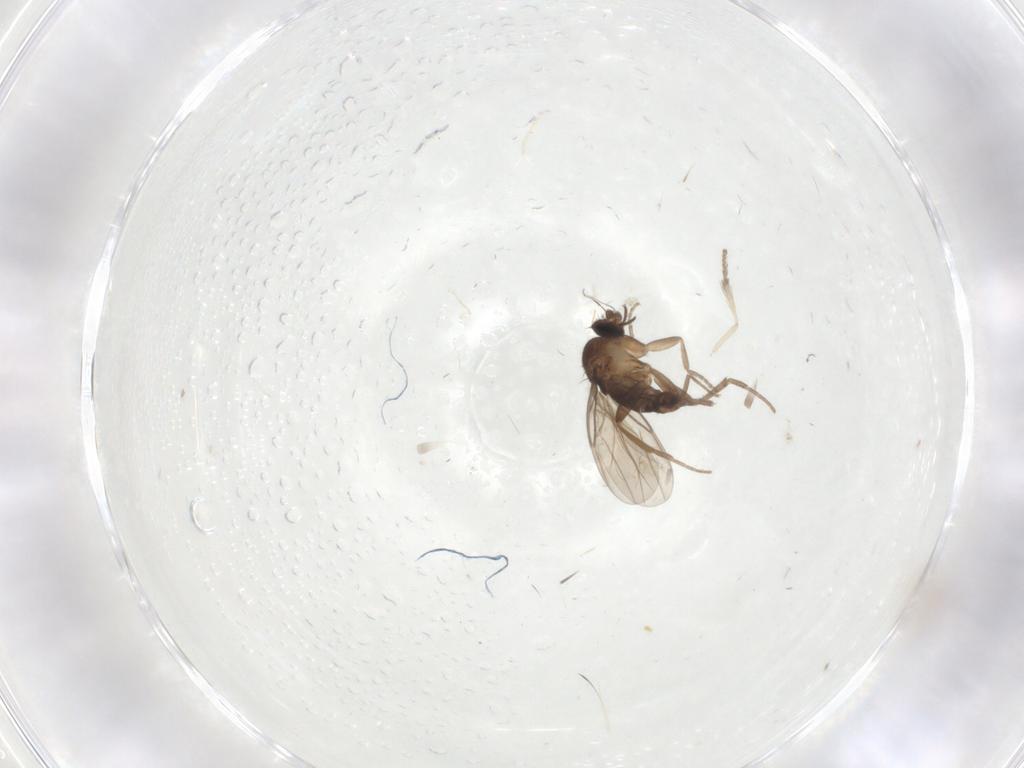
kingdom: Animalia
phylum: Arthropoda
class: Insecta
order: Diptera
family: Phoridae
